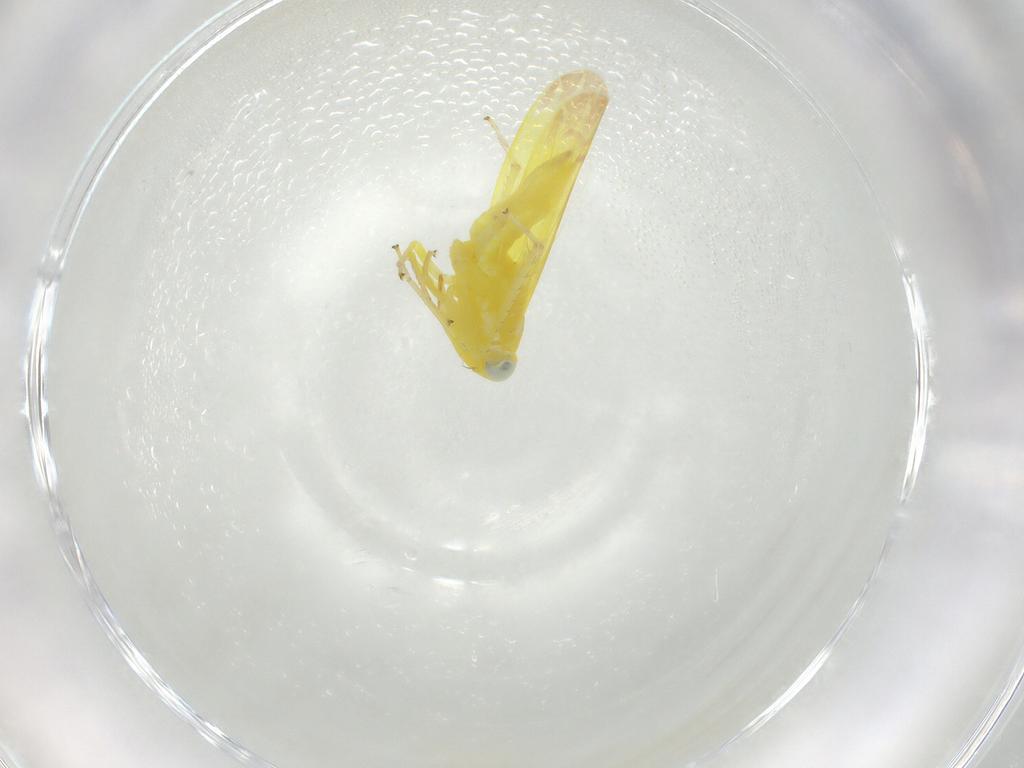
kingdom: Animalia
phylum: Arthropoda
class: Insecta
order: Hemiptera
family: Cicadellidae
